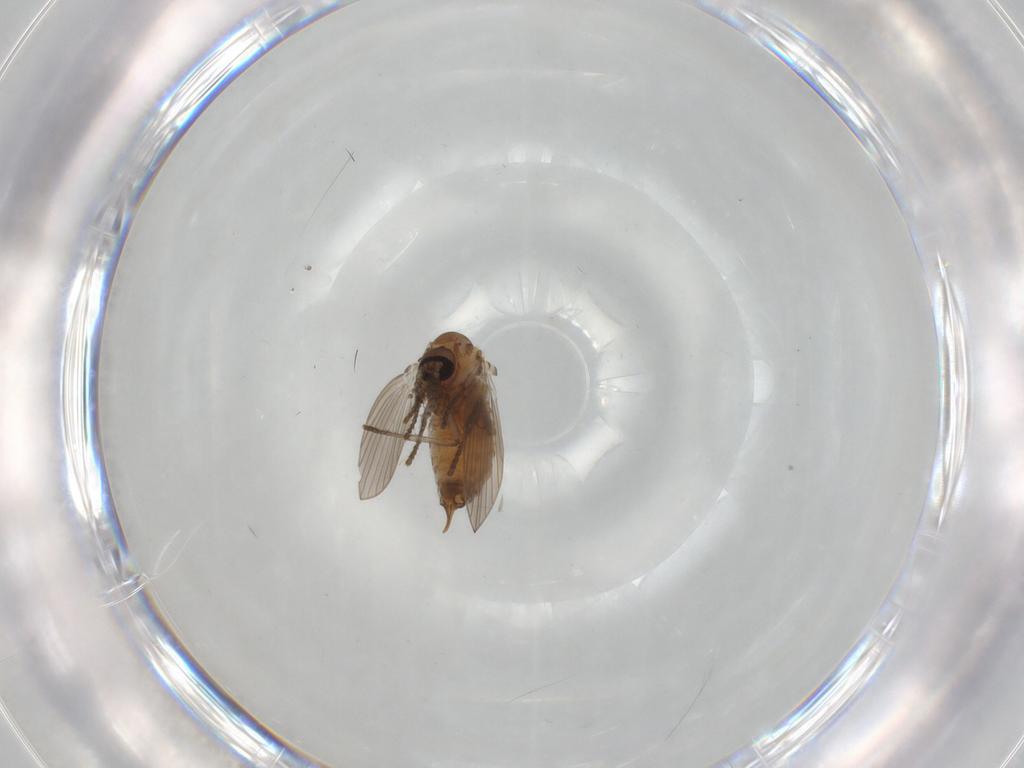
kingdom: Animalia
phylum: Arthropoda
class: Insecta
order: Diptera
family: Psychodidae
